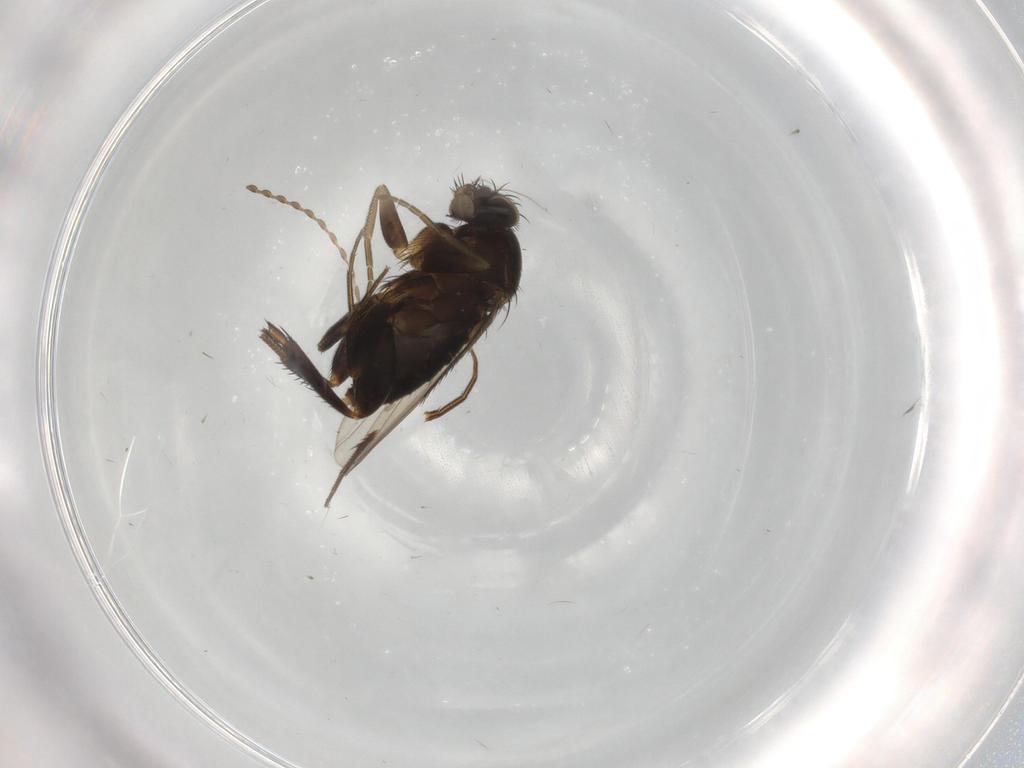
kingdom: Animalia
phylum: Arthropoda
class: Insecta
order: Diptera
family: Cecidomyiidae
